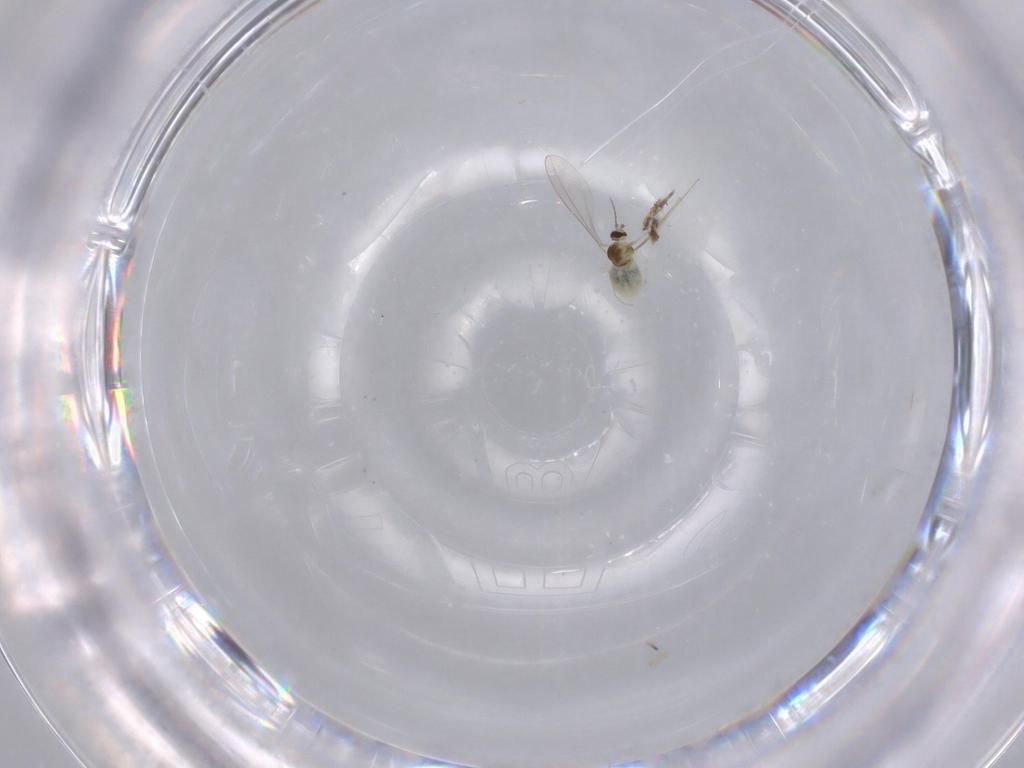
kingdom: Animalia
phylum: Arthropoda
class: Insecta
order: Diptera
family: Cecidomyiidae
